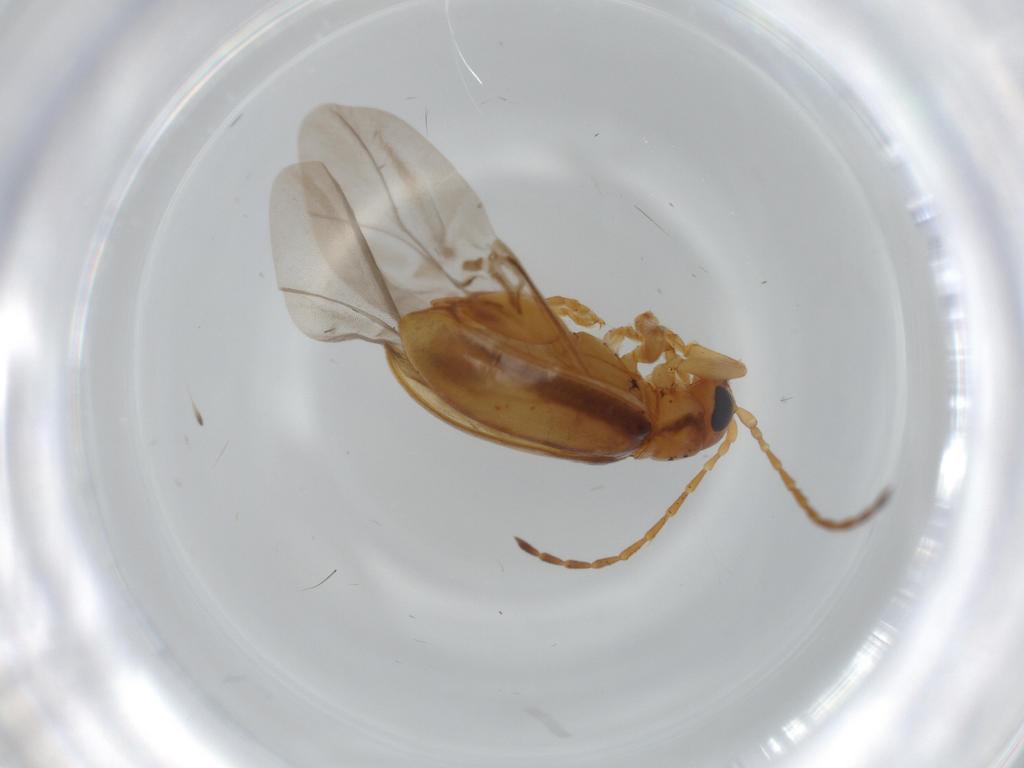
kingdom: Animalia
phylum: Arthropoda
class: Insecta
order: Coleoptera
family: Chrysomelidae
